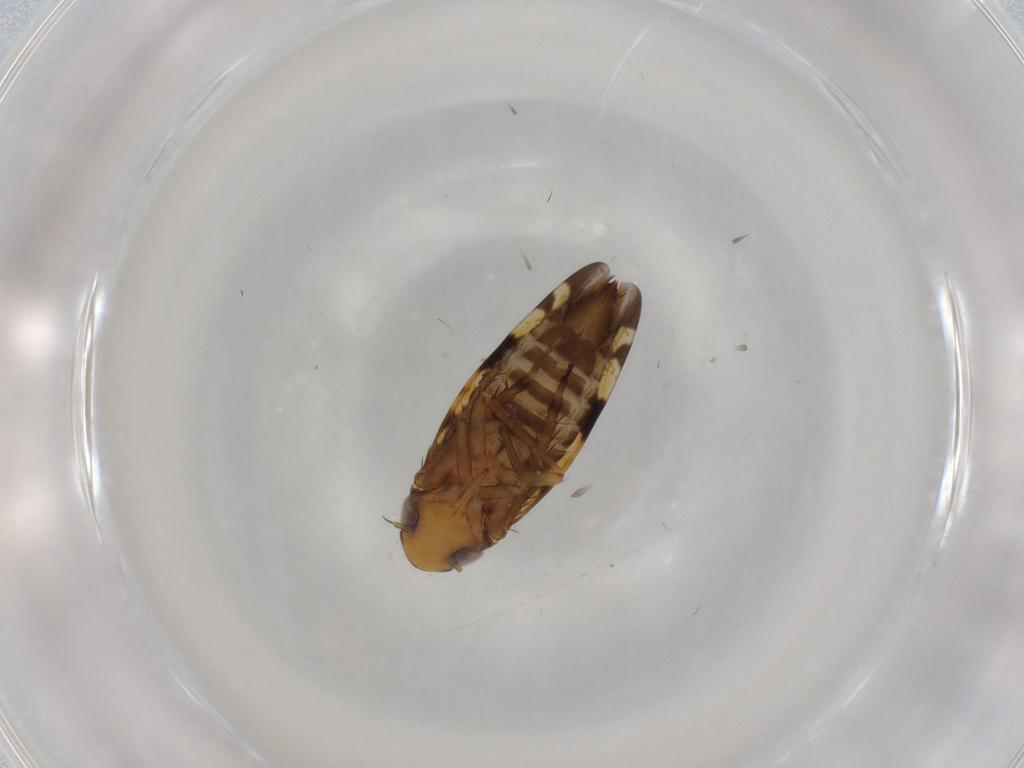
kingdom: Animalia
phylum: Arthropoda
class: Insecta
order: Hemiptera
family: Cicadellidae
